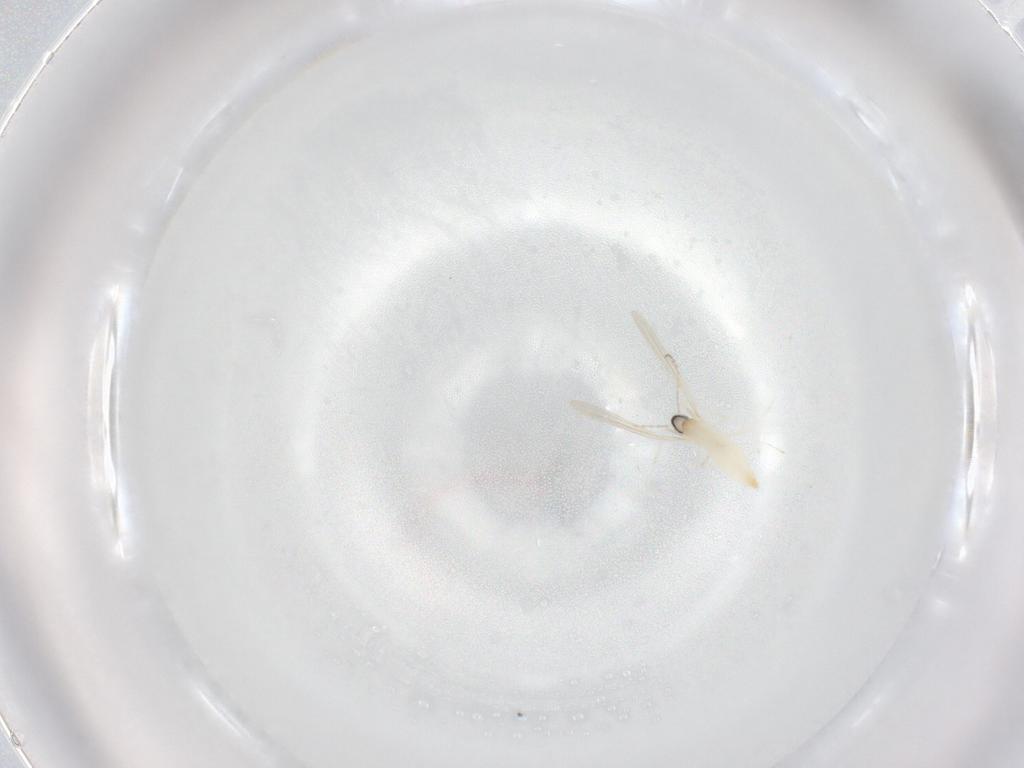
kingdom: Animalia
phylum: Arthropoda
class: Insecta
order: Diptera
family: Cecidomyiidae
